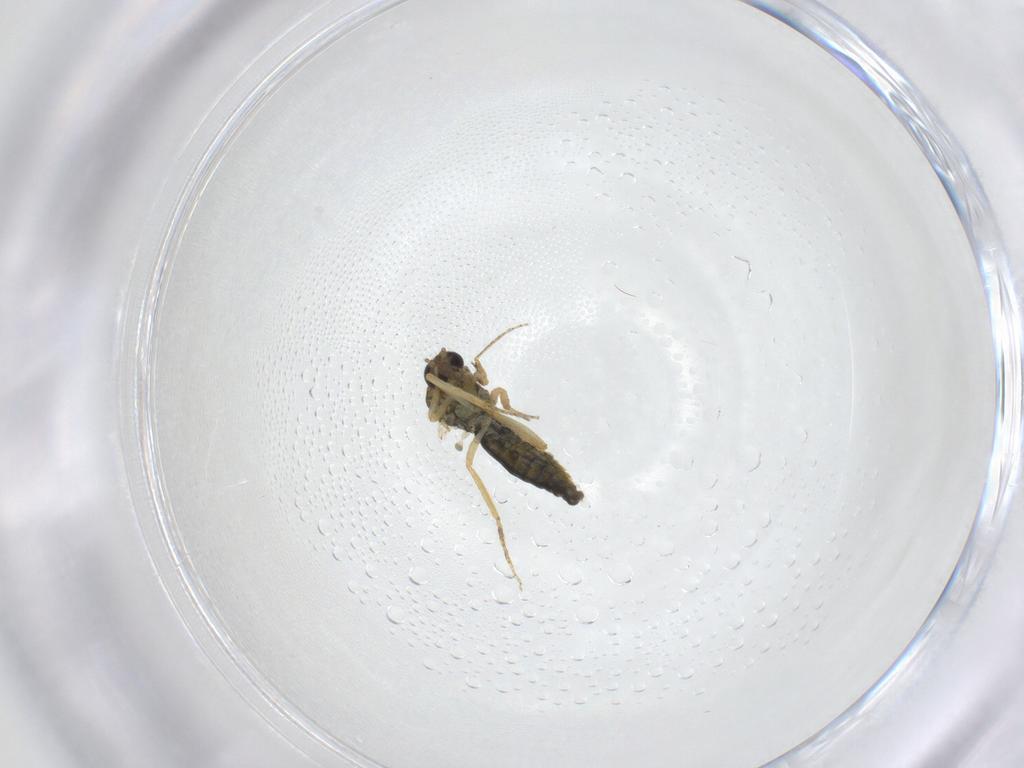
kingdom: Animalia
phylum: Arthropoda
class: Insecta
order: Diptera
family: Ceratopogonidae
